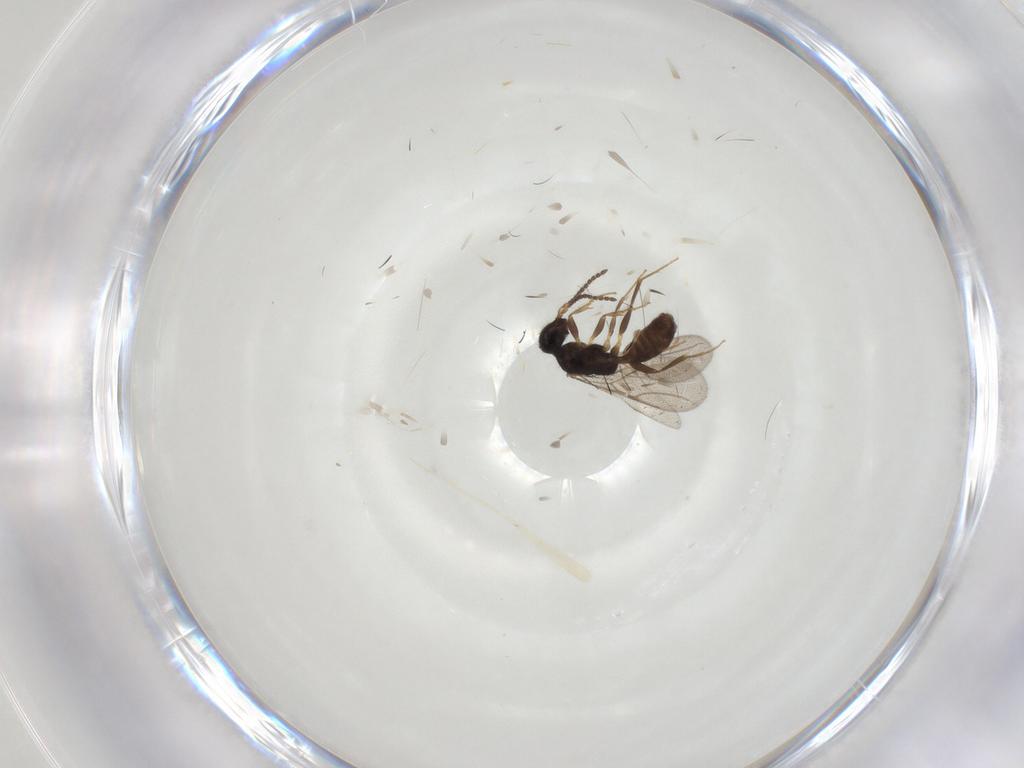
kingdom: Animalia
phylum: Arthropoda
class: Insecta
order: Hymenoptera
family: Bethylidae
